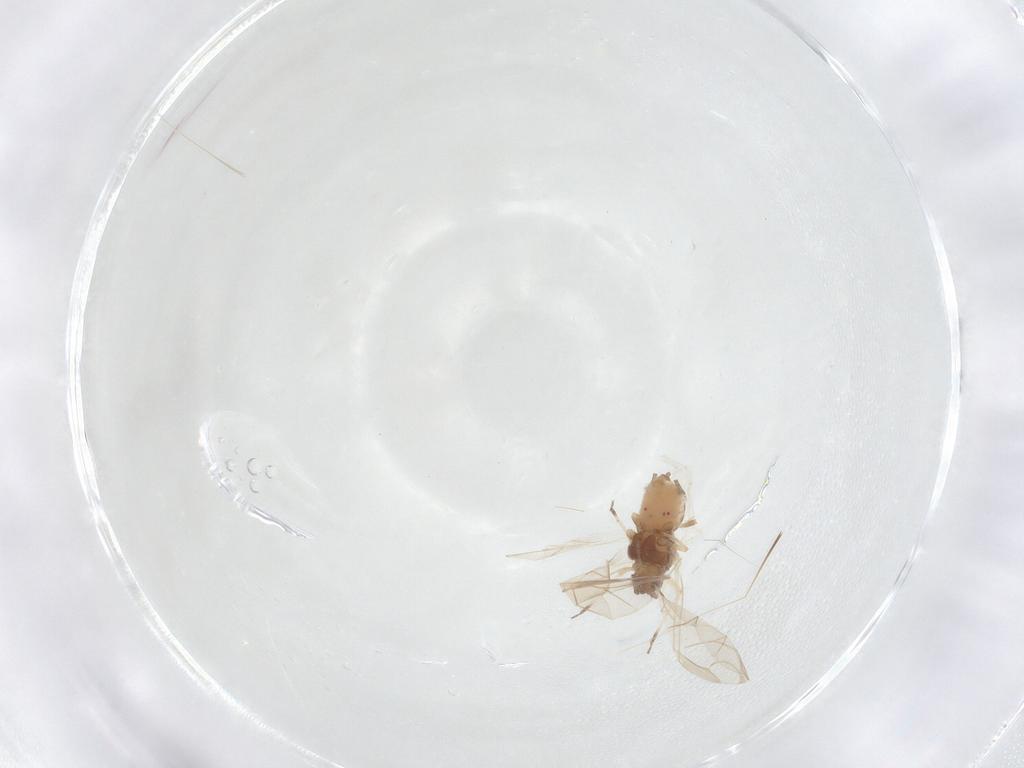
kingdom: Animalia
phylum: Arthropoda
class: Insecta
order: Hemiptera
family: Aphididae
